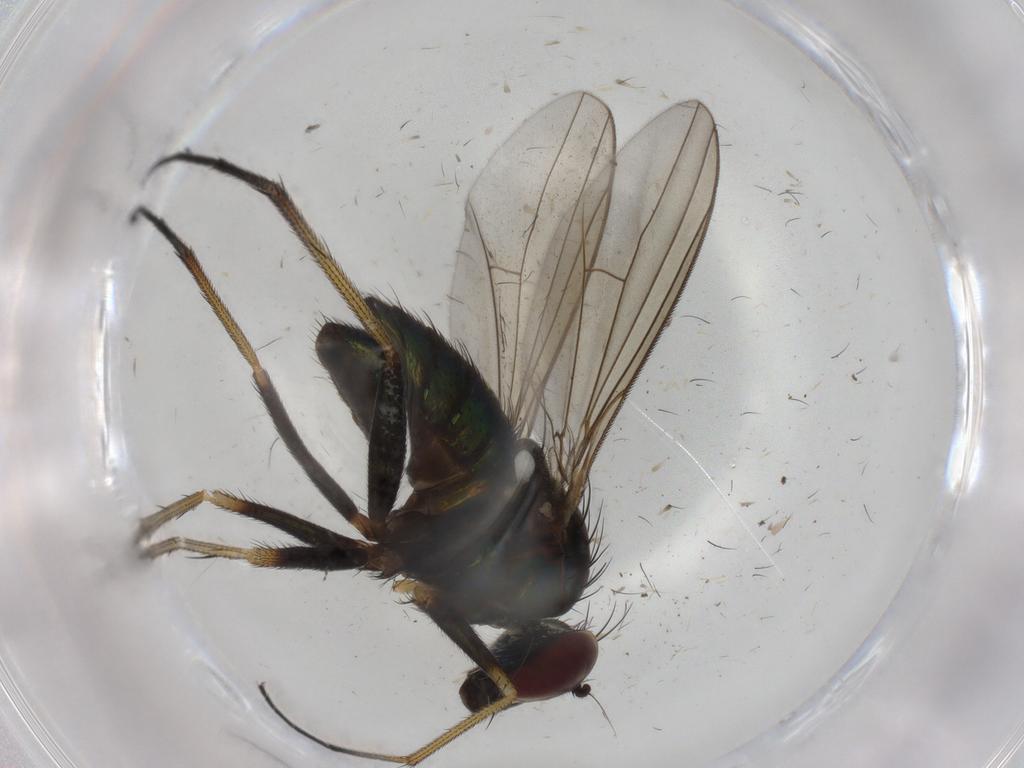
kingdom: Animalia
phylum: Arthropoda
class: Insecta
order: Diptera
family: Dolichopodidae
